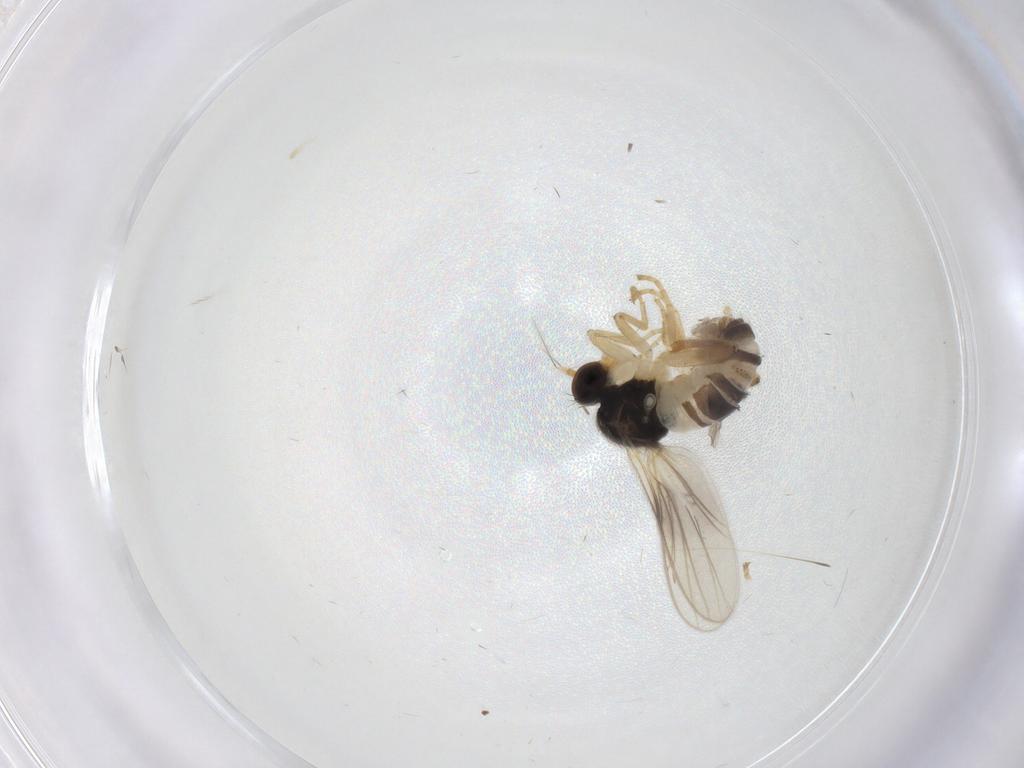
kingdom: Animalia
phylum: Arthropoda
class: Insecta
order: Diptera
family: Hybotidae
